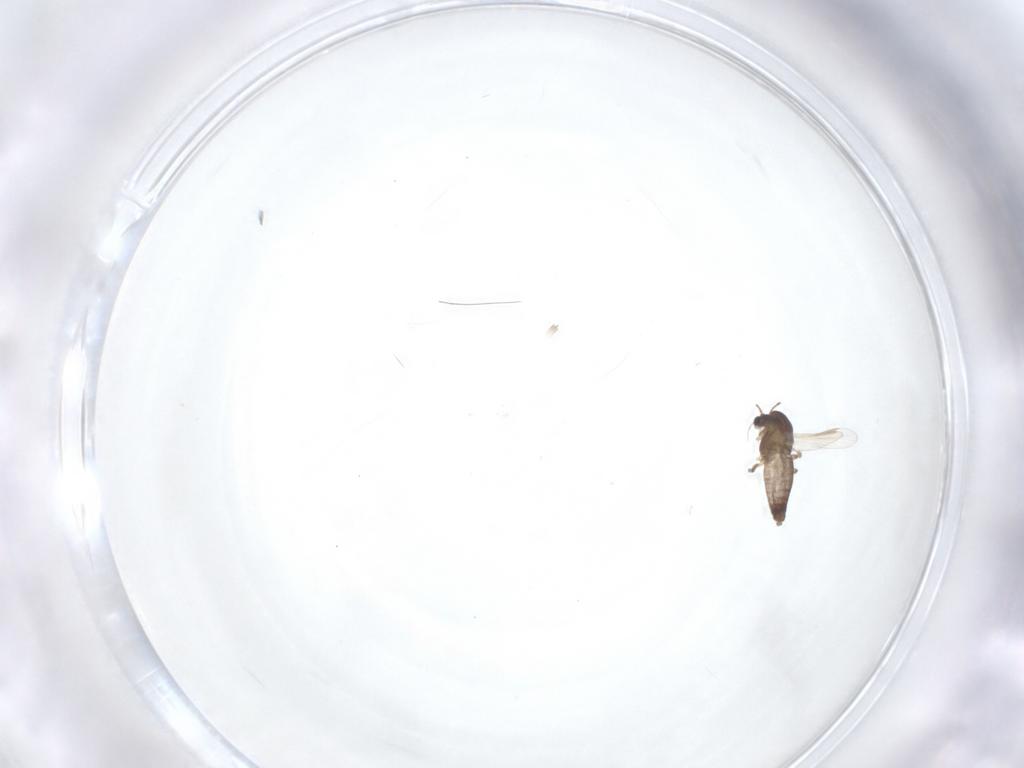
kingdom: Animalia
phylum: Arthropoda
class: Insecta
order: Diptera
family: Chironomidae
